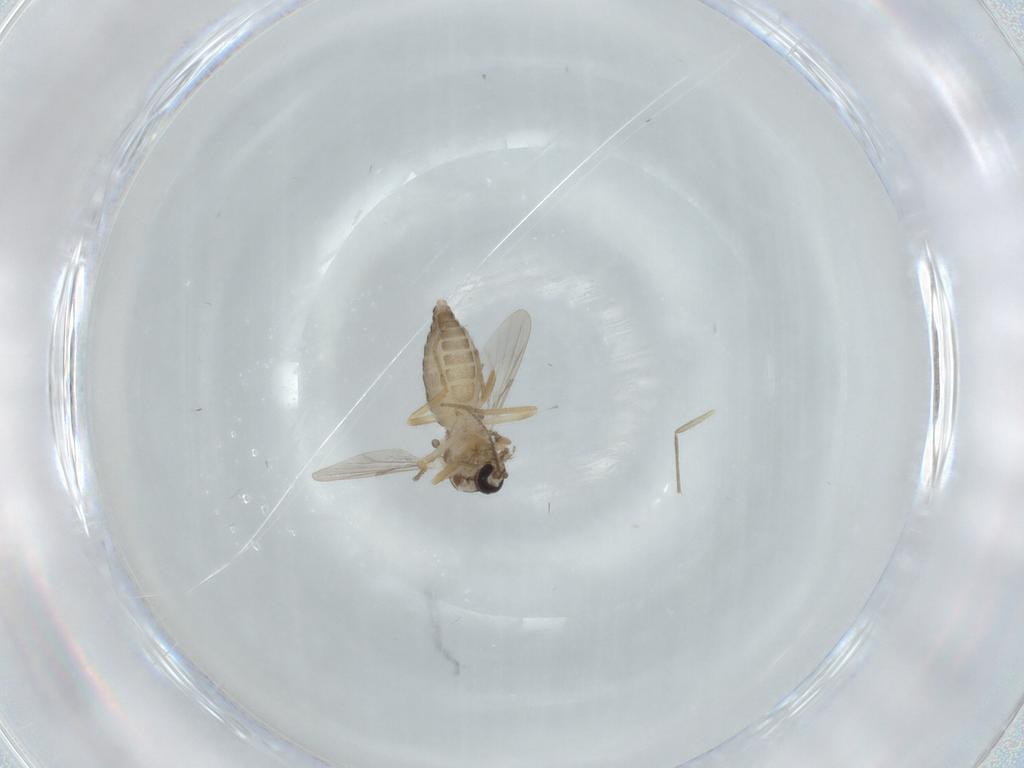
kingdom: Animalia
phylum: Arthropoda
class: Insecta
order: Diptera
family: Ceratopogonidae
